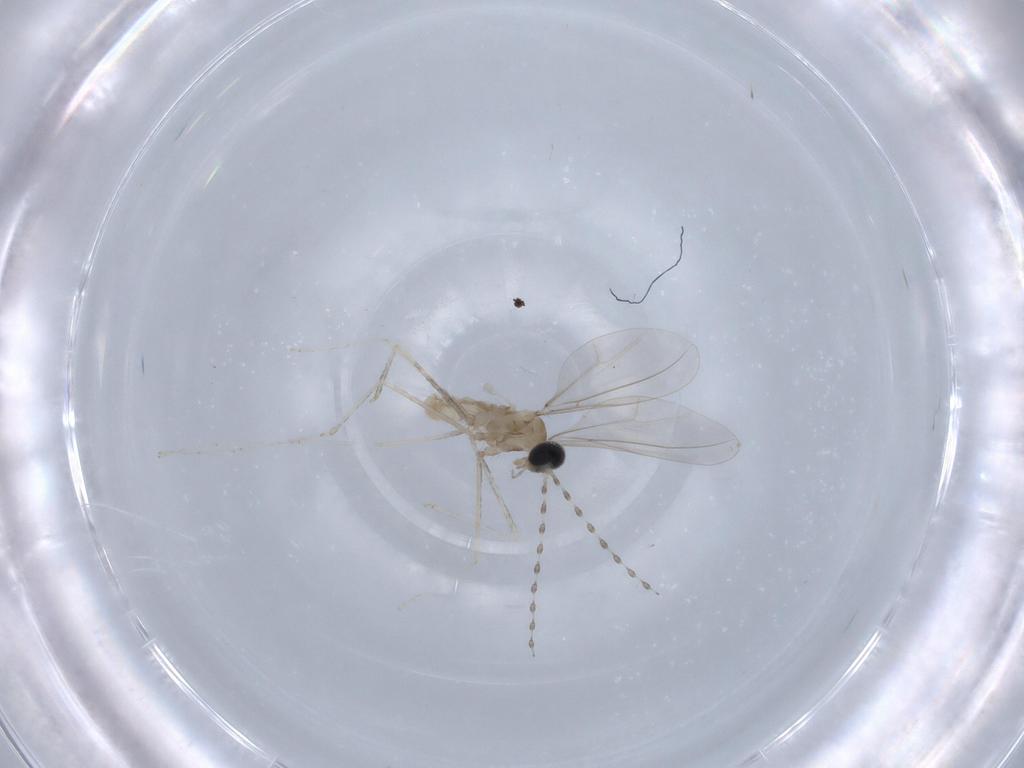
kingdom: Animalia
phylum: Arthropoda
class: Insecta
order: Diptera
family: Cecidomyiidae
